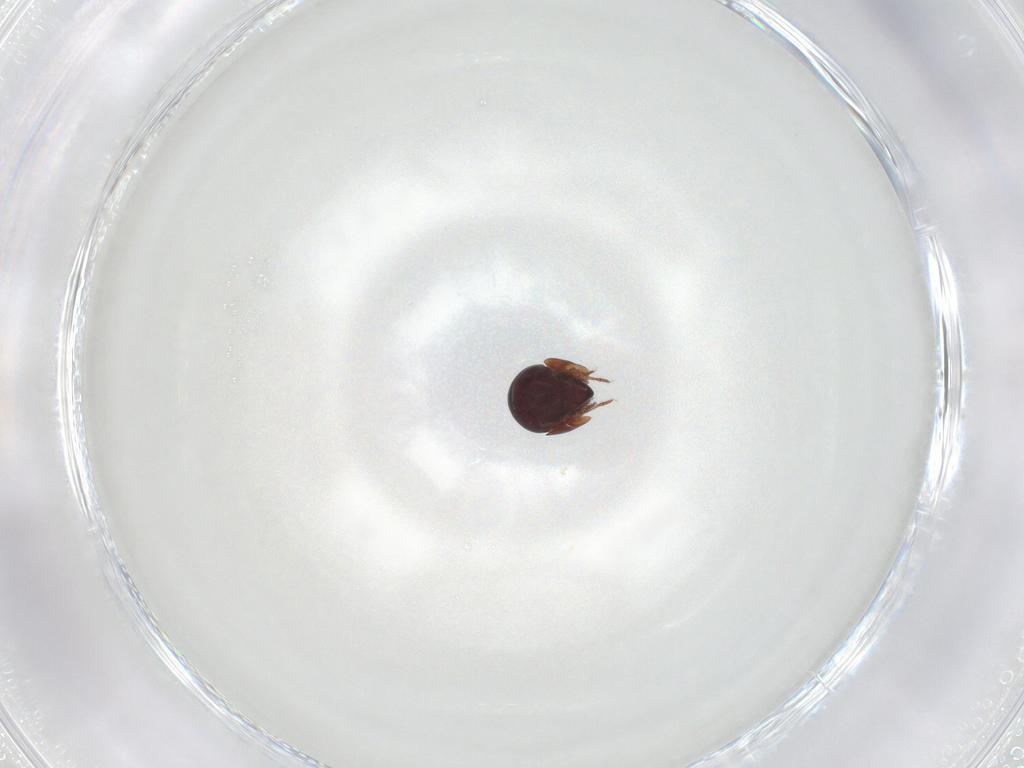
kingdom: Animalia
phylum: Arthropoda
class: Arachnida
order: Sarcoptiformes
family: Galumnidae
